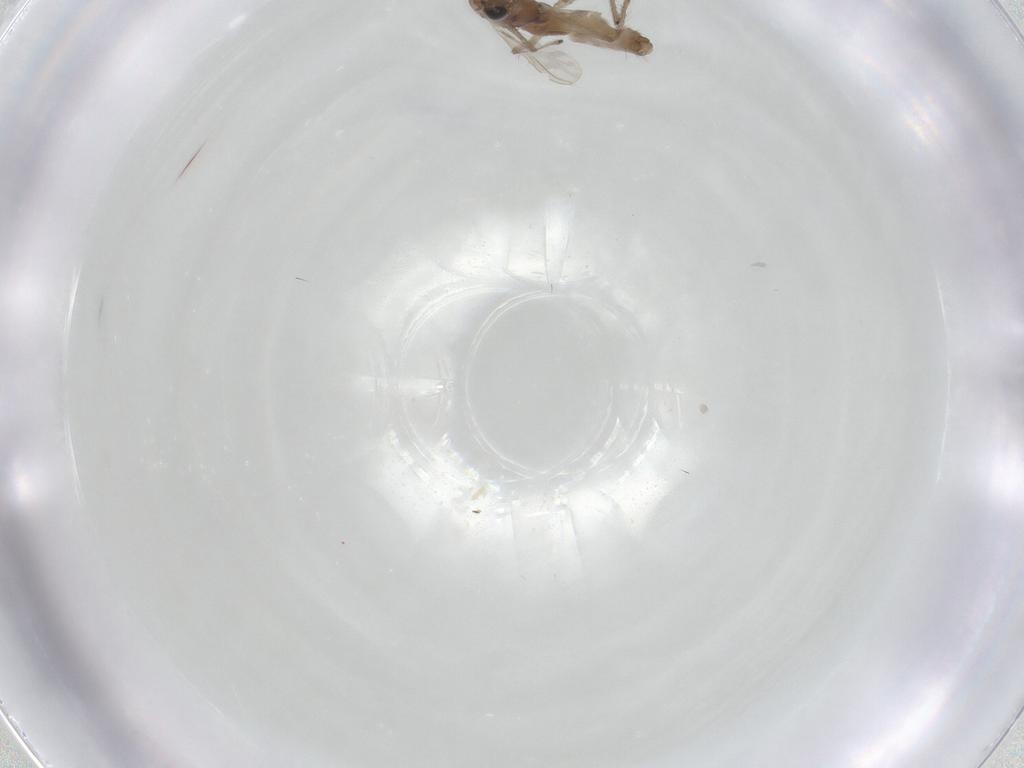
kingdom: Animalia
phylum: Arthropoda
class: Insecta
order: Diptera
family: Chironomidae
